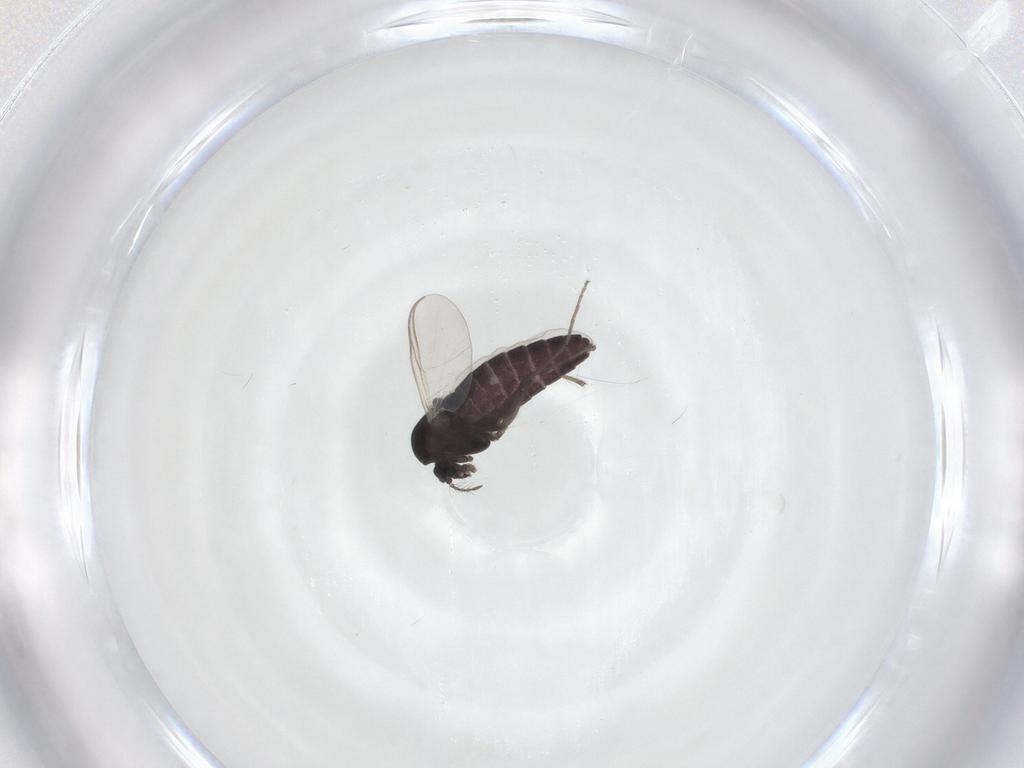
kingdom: Animalia
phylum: Arthropoda
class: Insecta
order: Diptera
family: Chironomidae
